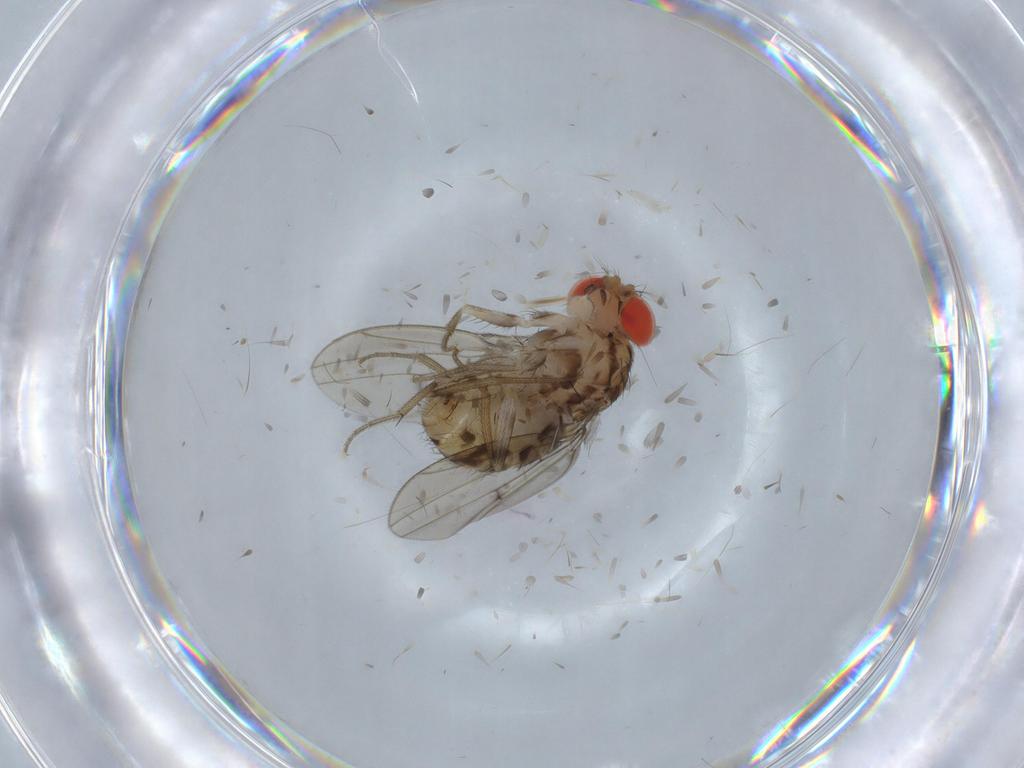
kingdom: Animalia
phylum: Arthropoda
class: Insecta
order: Diptera
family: Drosophilidae
